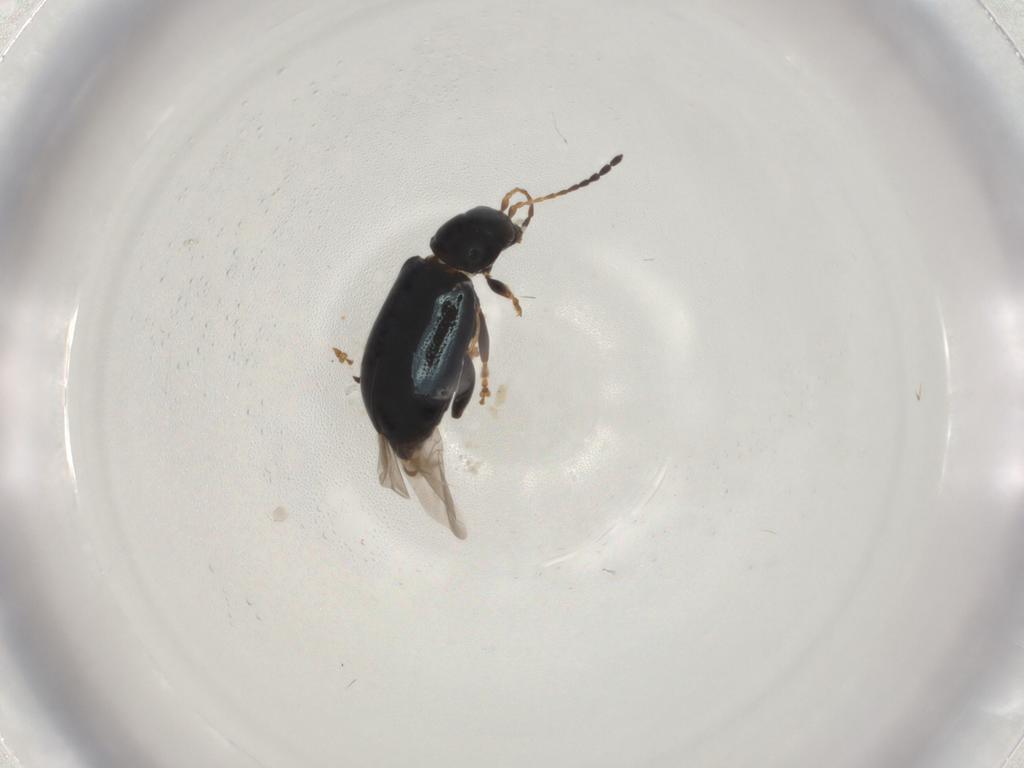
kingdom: Animalia
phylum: Arthropoda
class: Insecta
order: Coleoptera
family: Chrysomelidae
